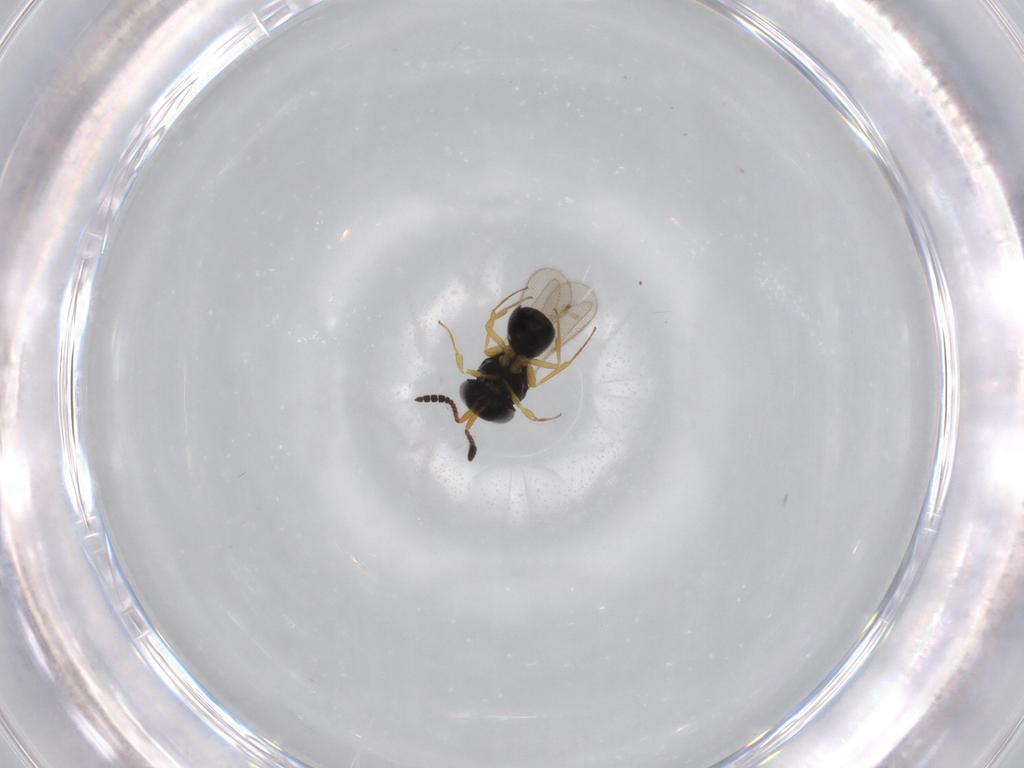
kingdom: Animalia
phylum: Arthropoda
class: Insecta
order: Hymenoptera
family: Scelionidae
